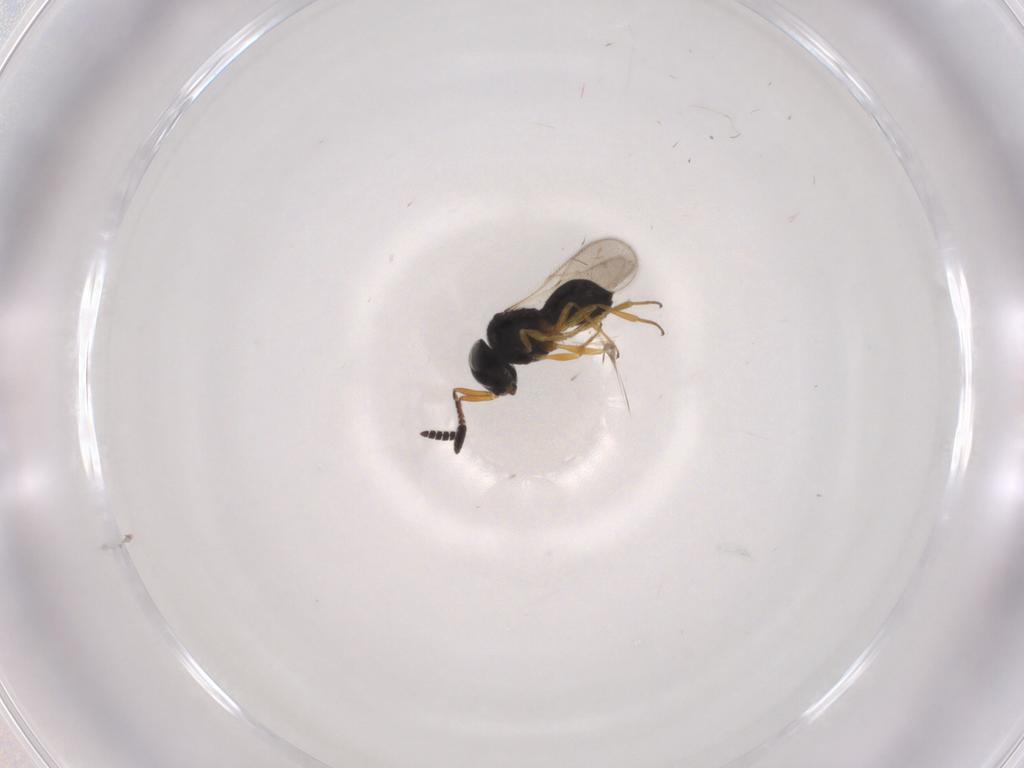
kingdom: Animalia
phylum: Arthropoda
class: Insecta
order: Hymenoptera
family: Scelionidae
